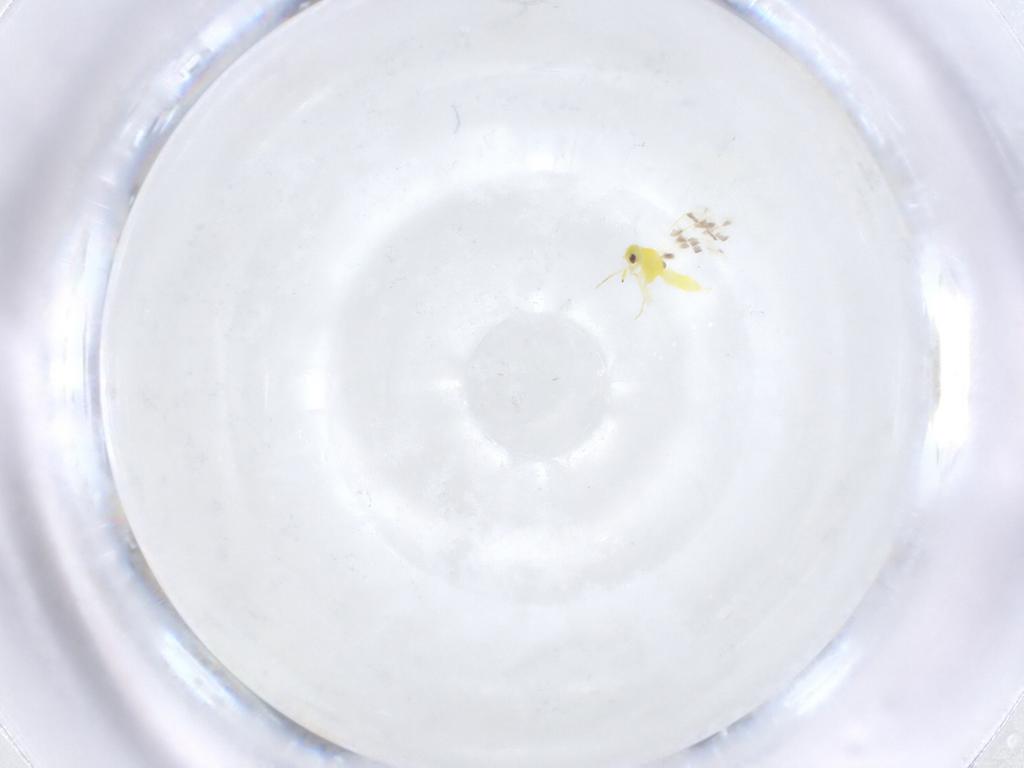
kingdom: Animalia
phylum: Arthropoda
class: Insecta
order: Hemiptera
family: Aleyrodidae
